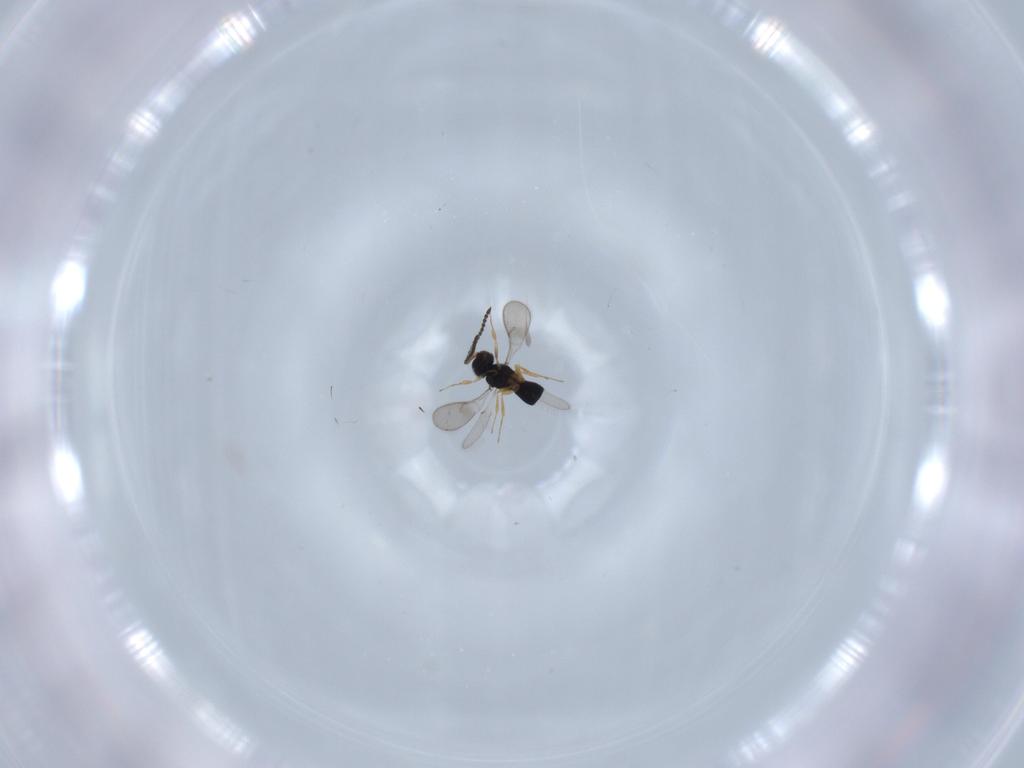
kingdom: Animalia
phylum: Arthropoda
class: Insecta
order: Hymenoptera
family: Scelionidae
